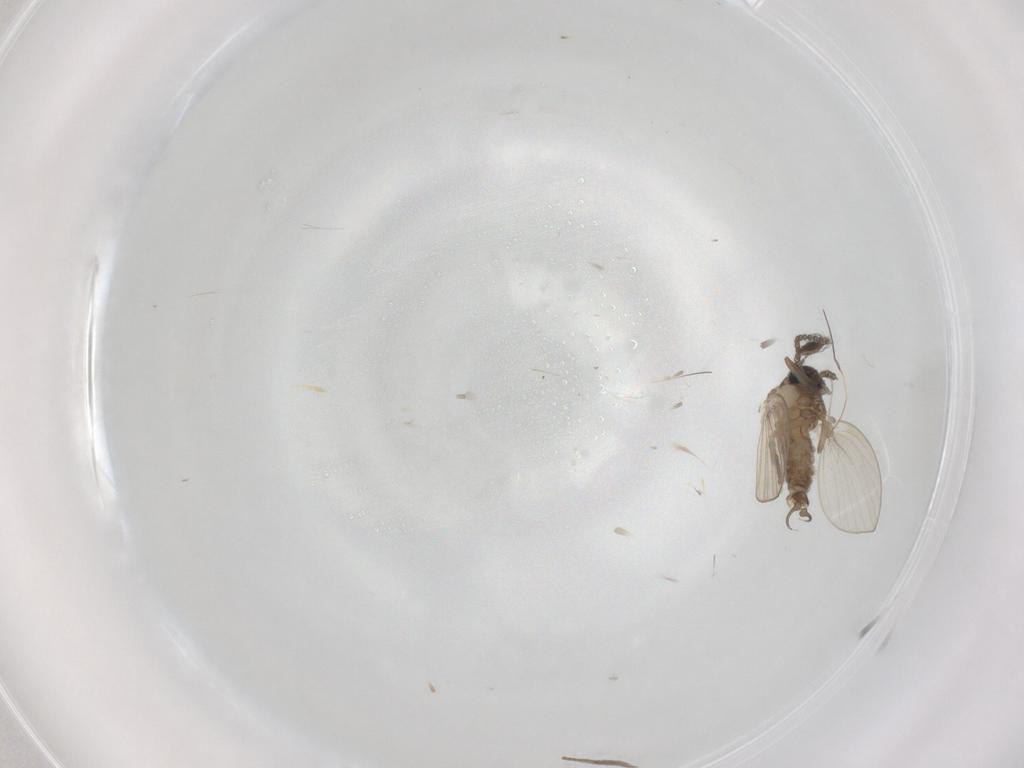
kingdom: Animalia
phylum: Arthropoda
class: Insecta
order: Diptera
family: Psychodidae
